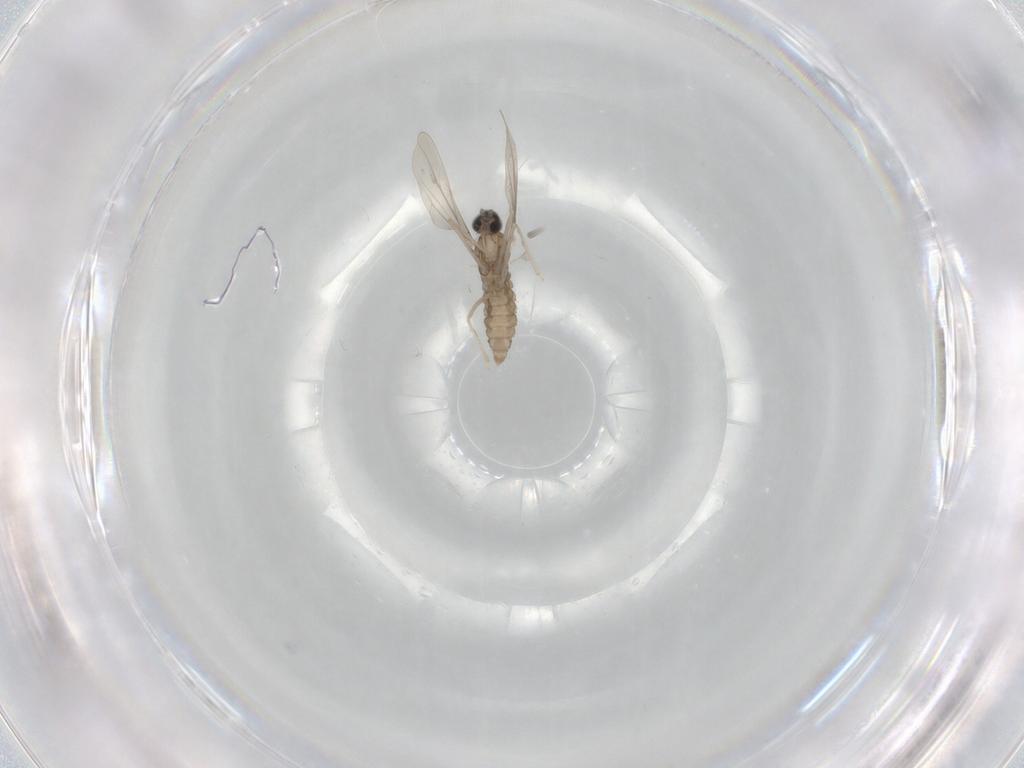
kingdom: Animalia
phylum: Arthropoda
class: Insecta
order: Diptera
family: Cecidomyiidae
